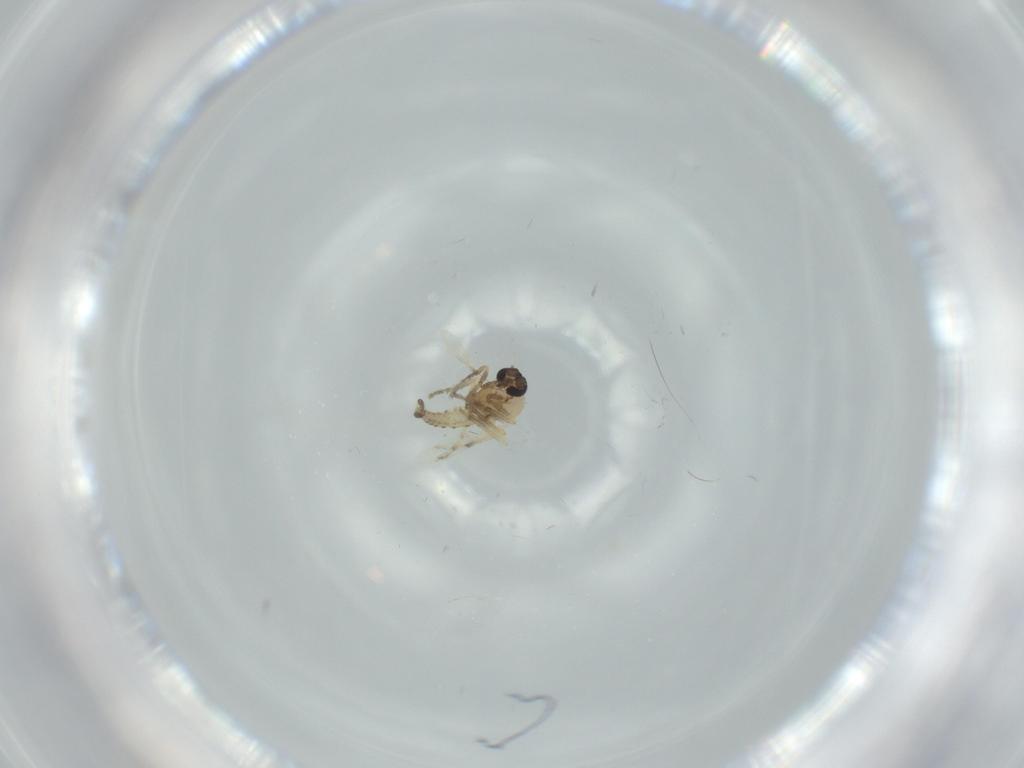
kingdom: Animalia
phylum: Arthropoda
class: Insecta
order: Diptera
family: Ceratopogonidae
